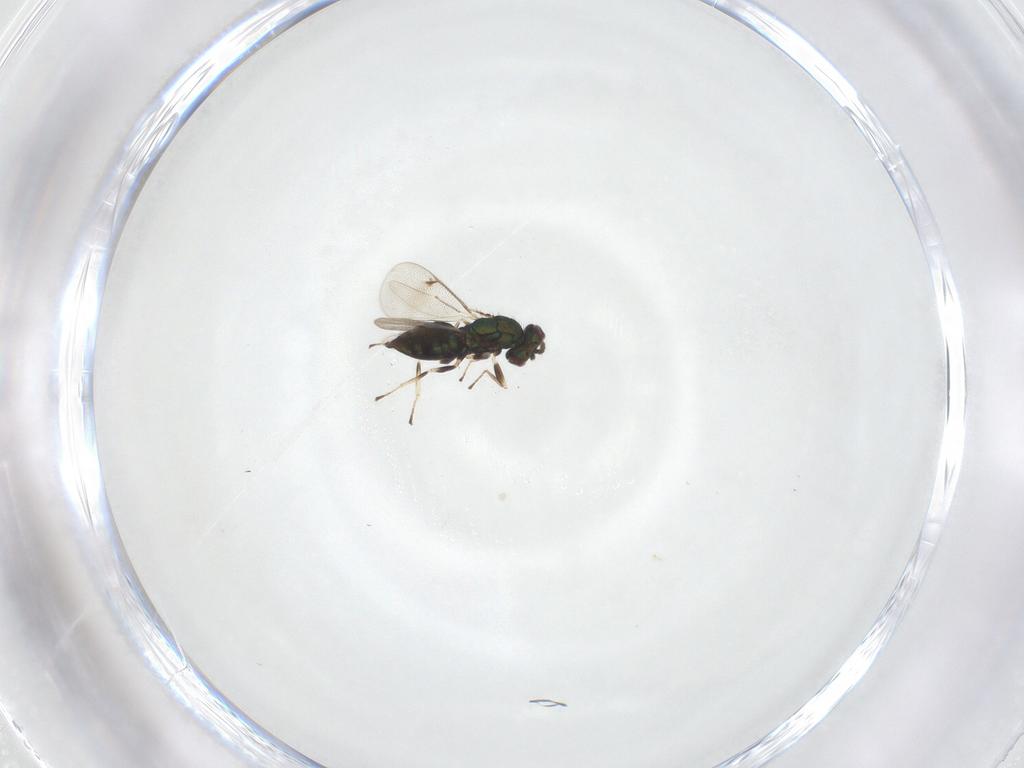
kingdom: Animalia
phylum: Arthropoda
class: Insecta
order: Hymenoptera
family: Eulophidae
